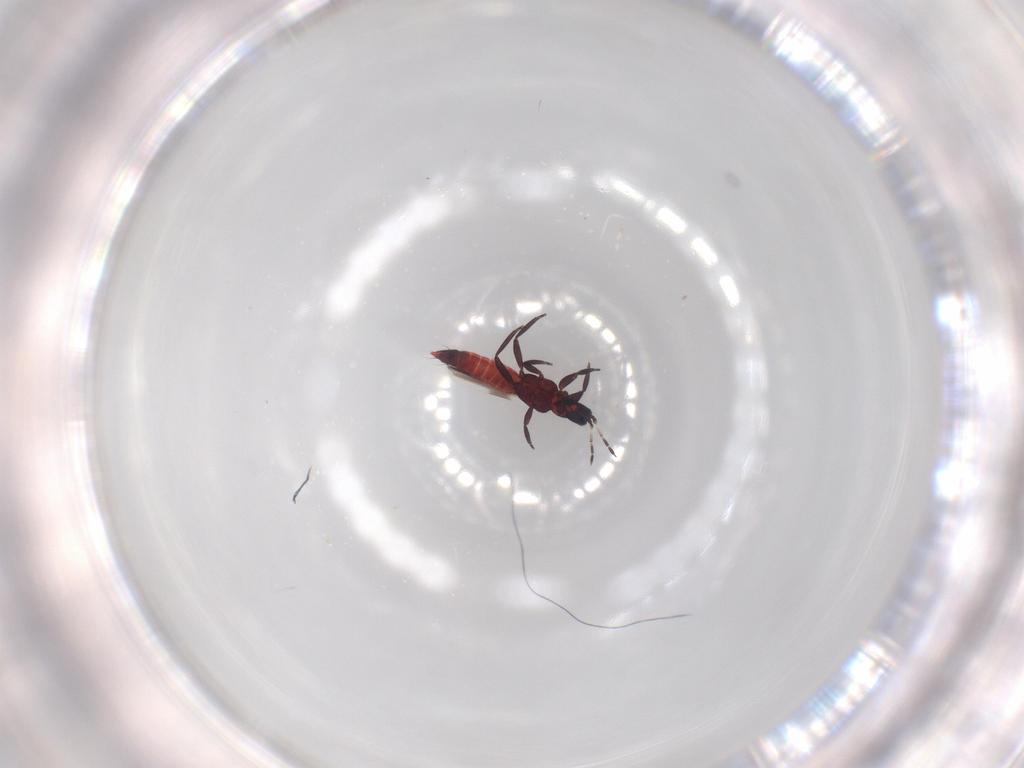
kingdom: Animalia
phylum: Arthropoda
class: Insecta
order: Thysanoptera
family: Aeolothripidae
